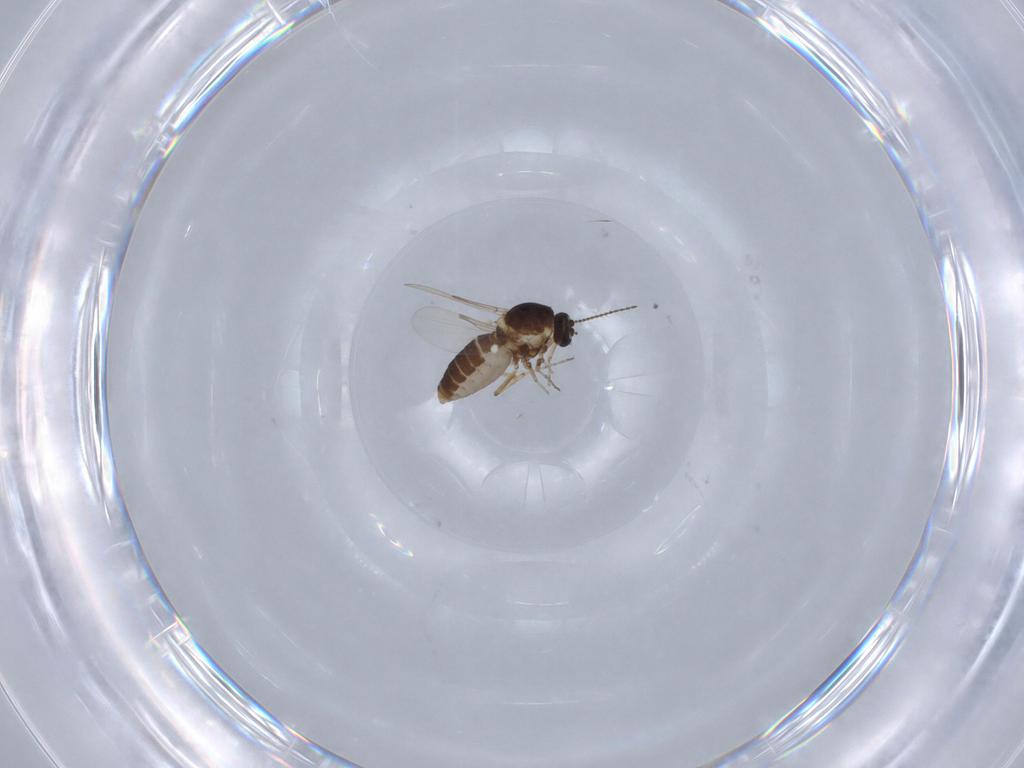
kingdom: Animalia
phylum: Arthropoda
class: Insecta
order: Diptera
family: Ceratopogonidae
